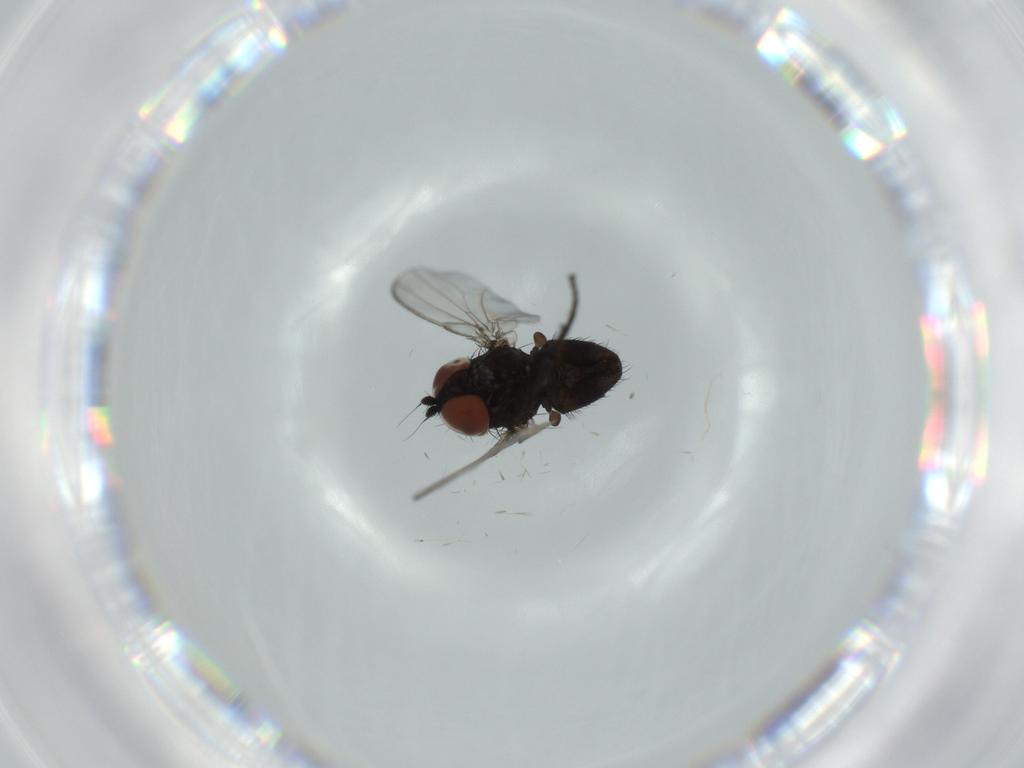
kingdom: Animalia
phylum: Arthropoda
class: Insecta
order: Diptera
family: Milichiidae
